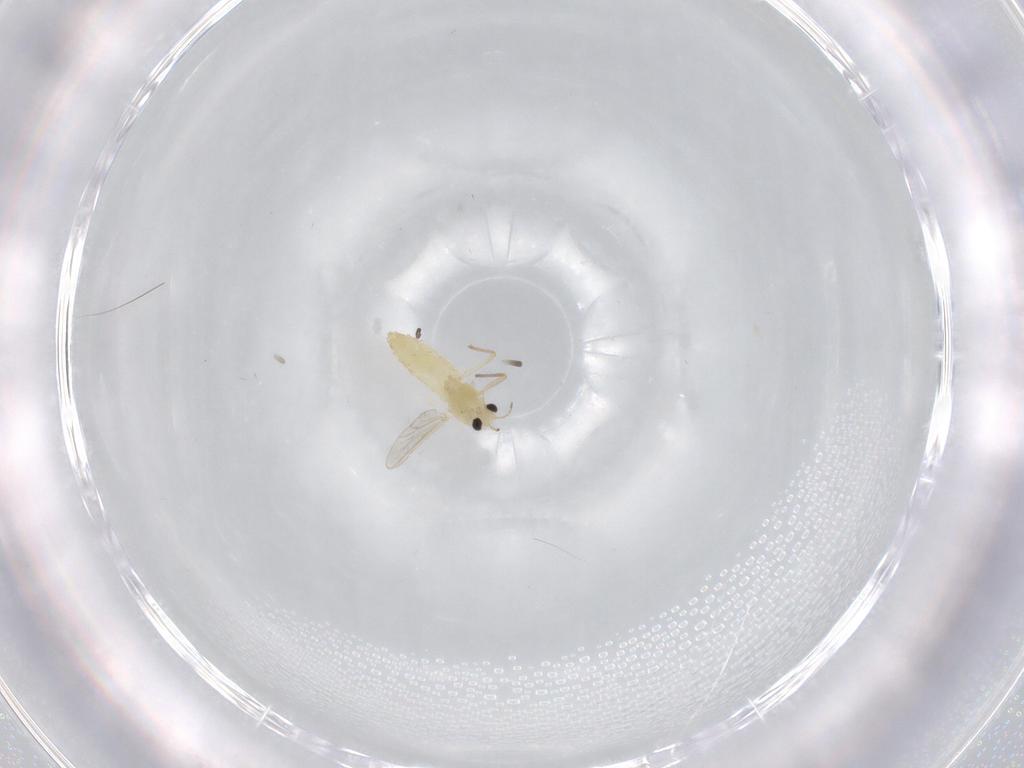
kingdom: Animalia
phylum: Arthropoda
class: Insecta
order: Diptera
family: Chironomidae
